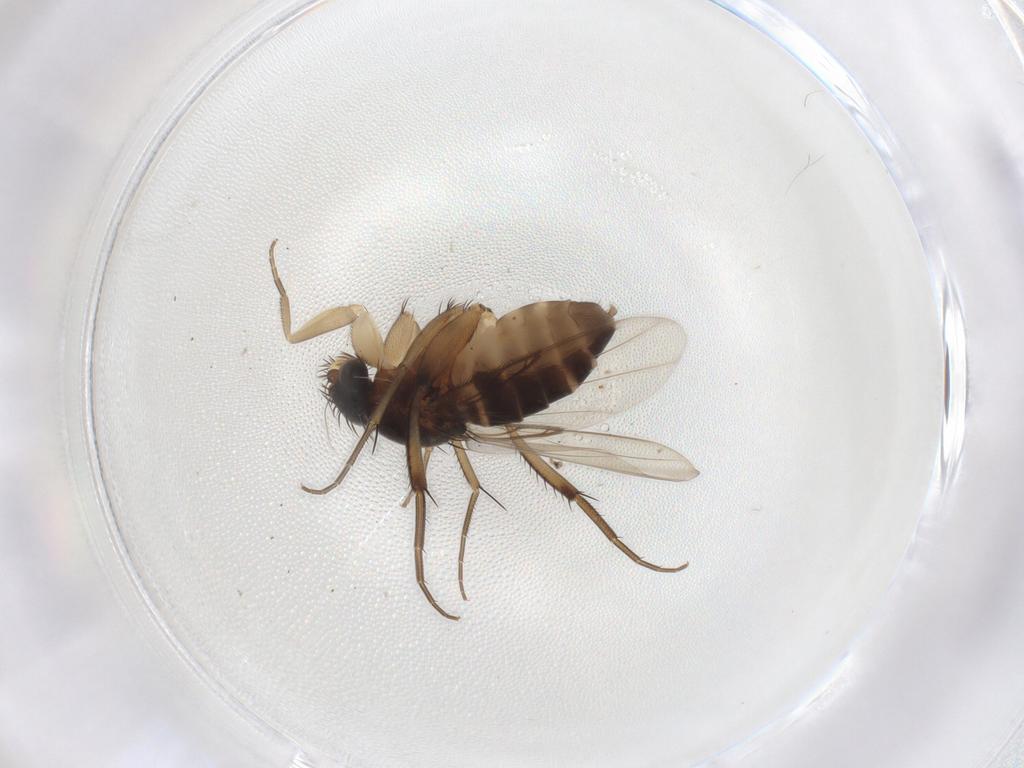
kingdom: Animalia
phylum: Arthropoda
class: Insecta
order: Diptera
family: Phoridae
